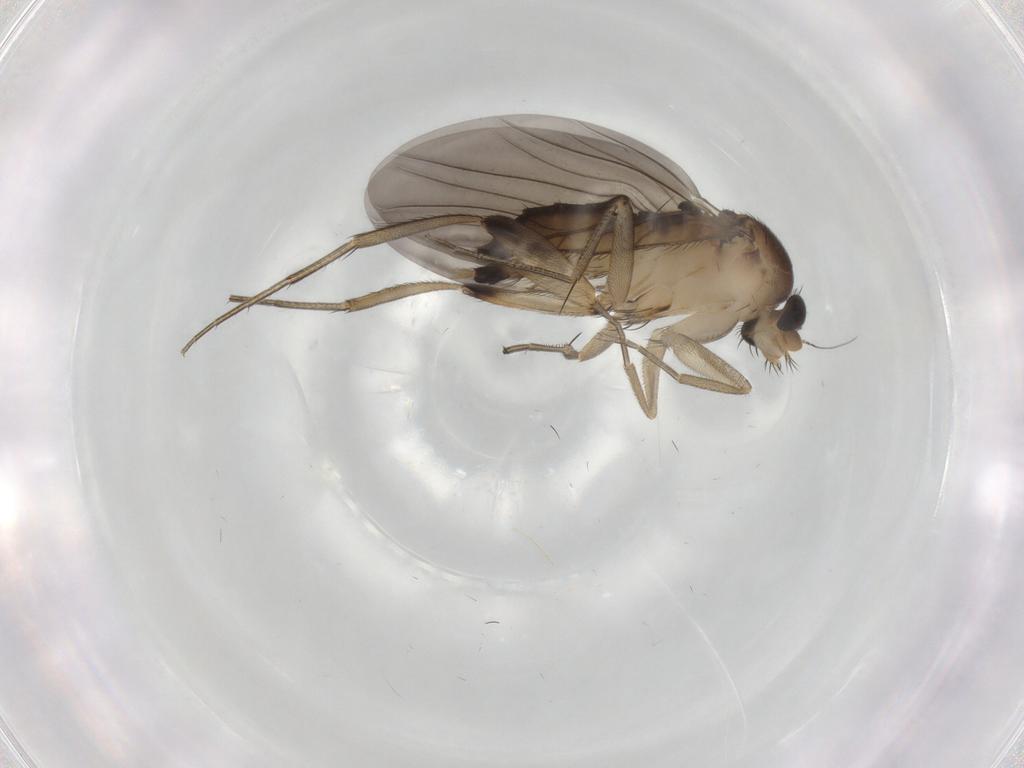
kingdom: Animalia
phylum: Arthropoda
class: Insecta
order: Diptera
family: Phoridae
